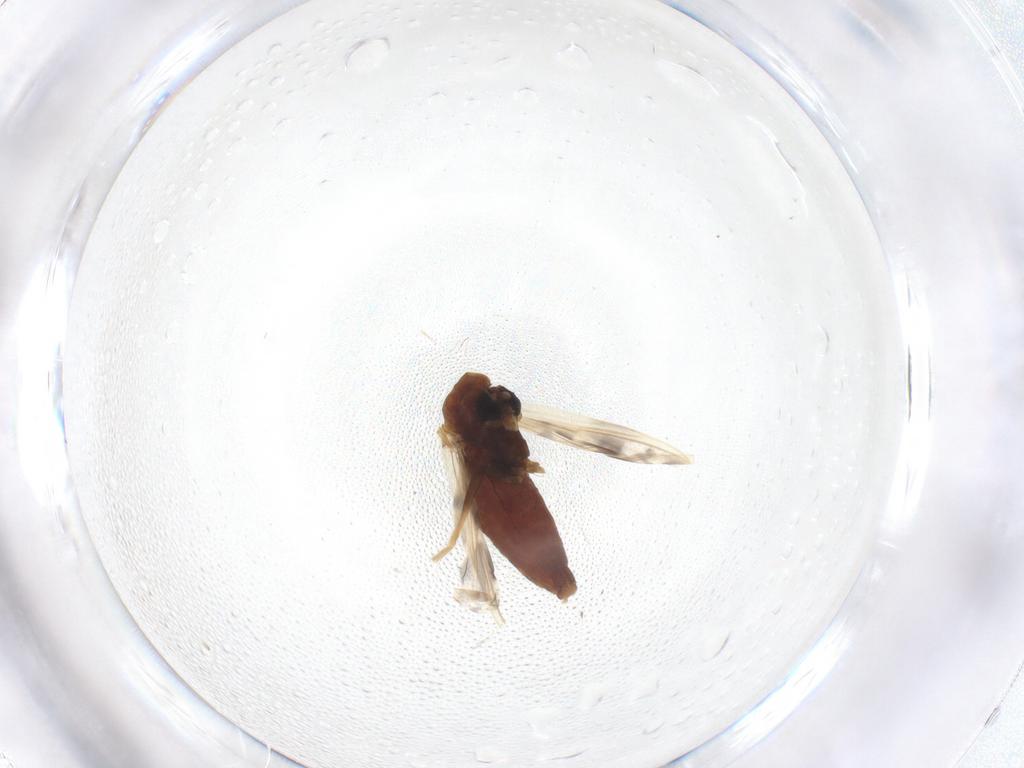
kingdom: Animalia
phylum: Arthropoda
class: Insecta
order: Diptera
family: Chironomidae
